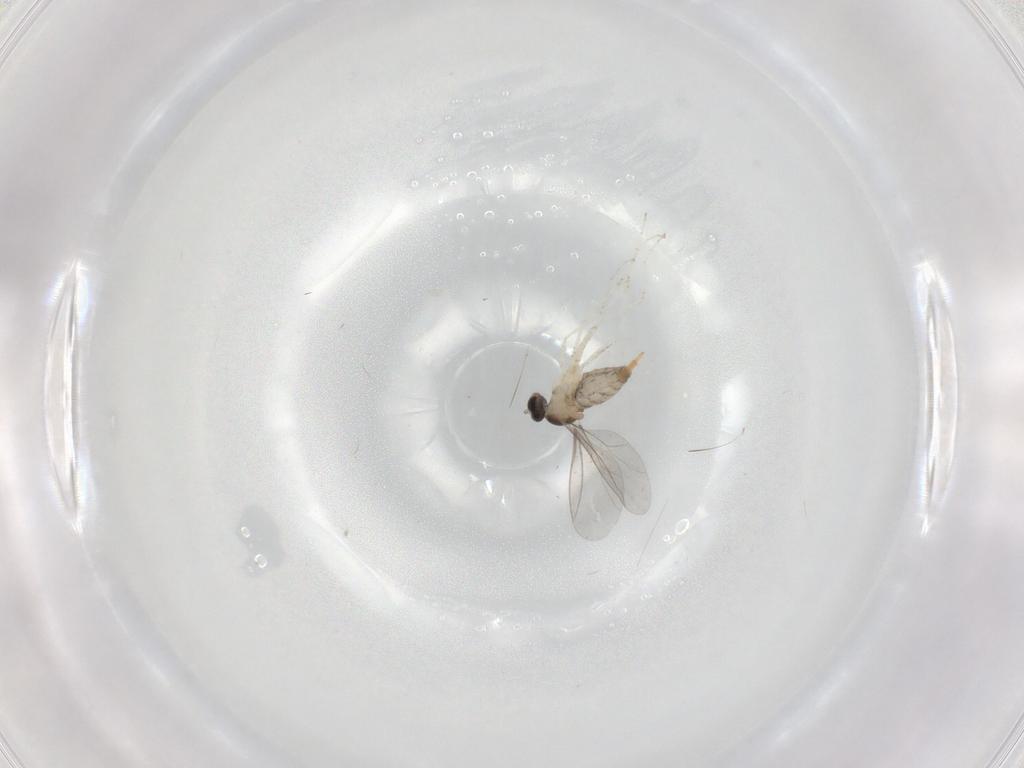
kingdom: Animalia
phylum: Arthropoda
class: Insecta
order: Diptera
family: Cecidomyiidae
